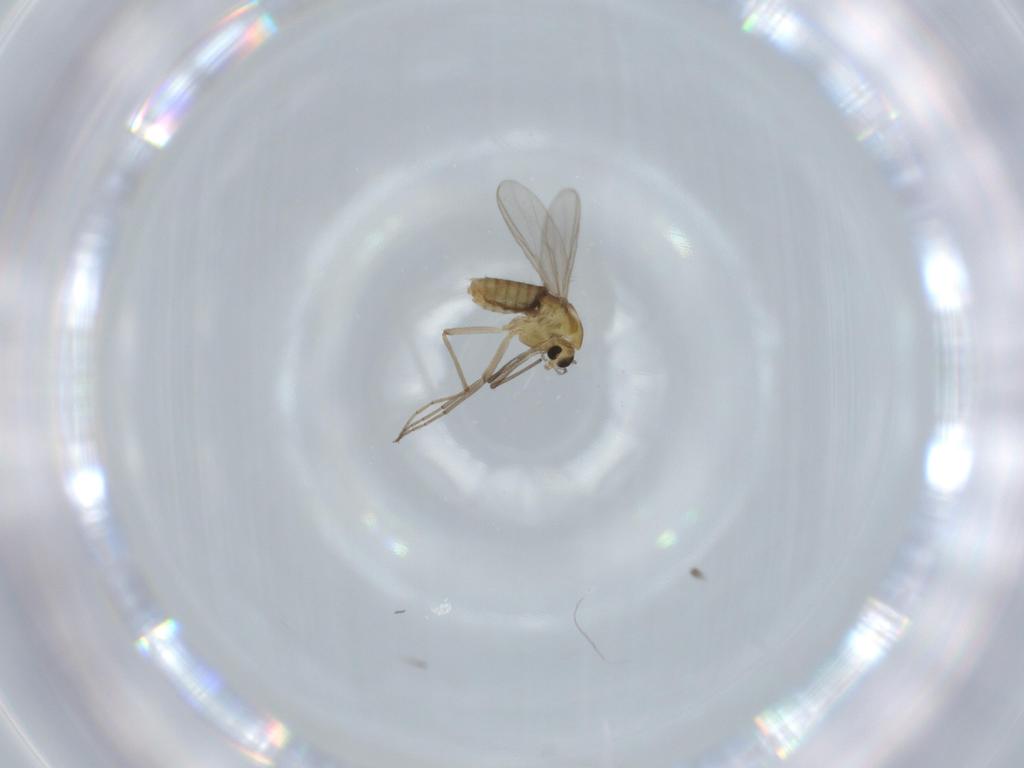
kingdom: Animalia
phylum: Arthropoda
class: Insecta
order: Diptera
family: Chironomidae
